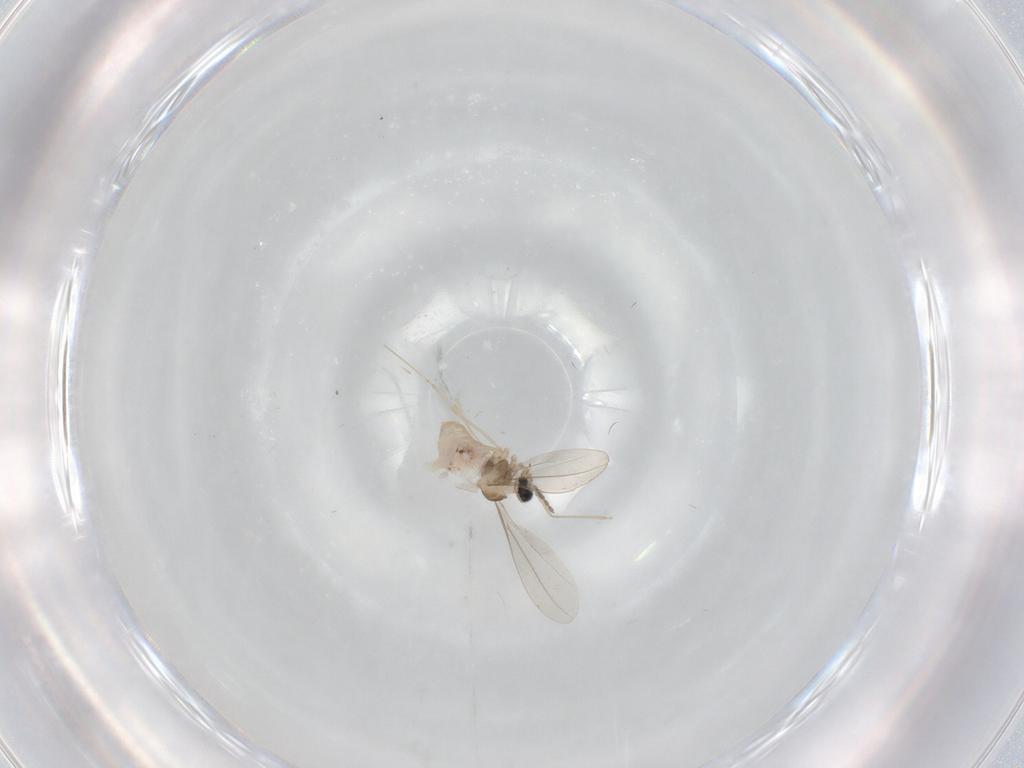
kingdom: Animalia
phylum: Arthropoda
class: Insecta
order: Diptera
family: Cecidomyiidae
